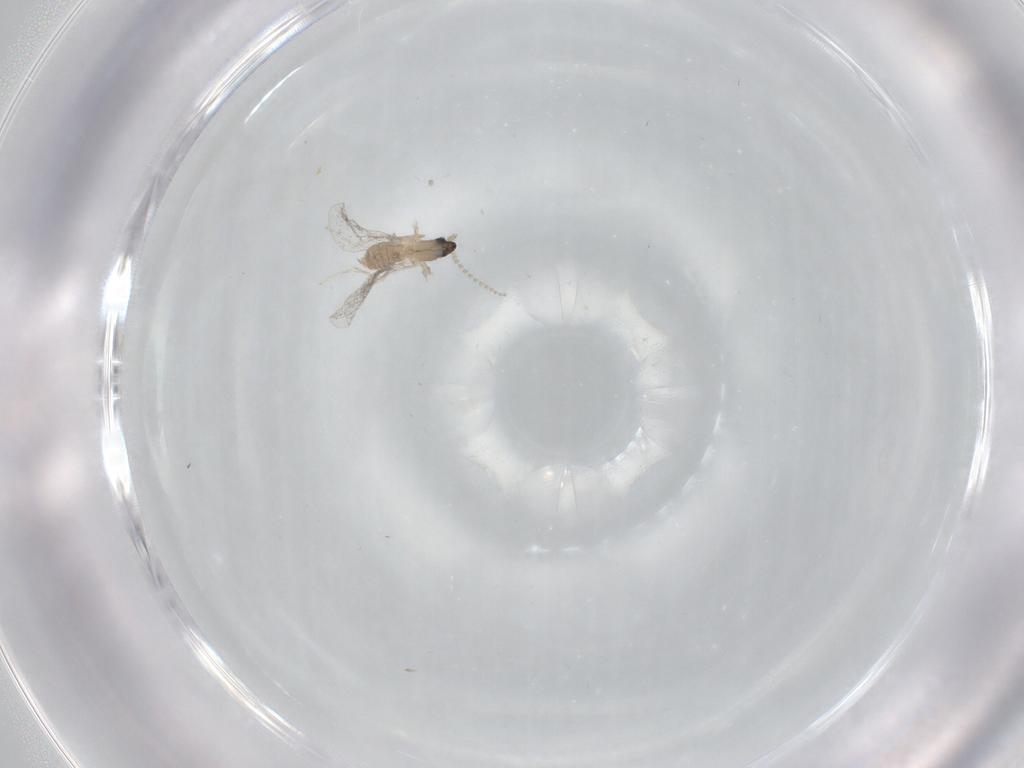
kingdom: Animalia
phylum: Arthropoda
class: Insecta
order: Diptera
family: Cecidomyiidae
